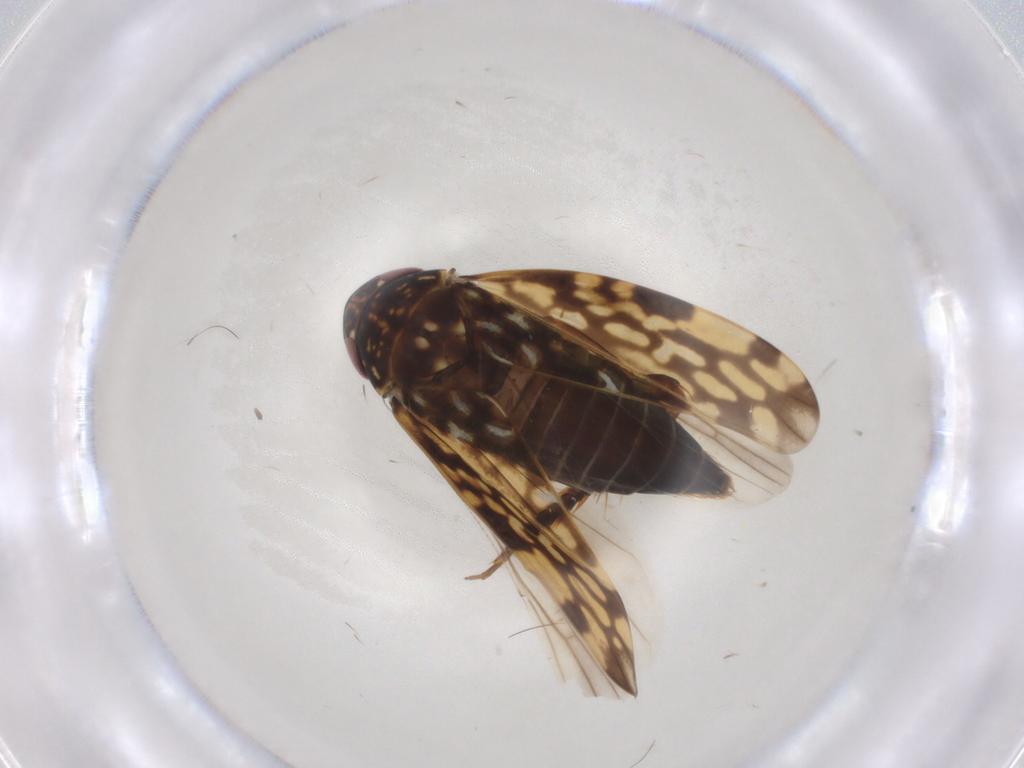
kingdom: Animalia
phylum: Arthropoda
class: Insecta
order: Hemiptera
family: Cicadellidae
